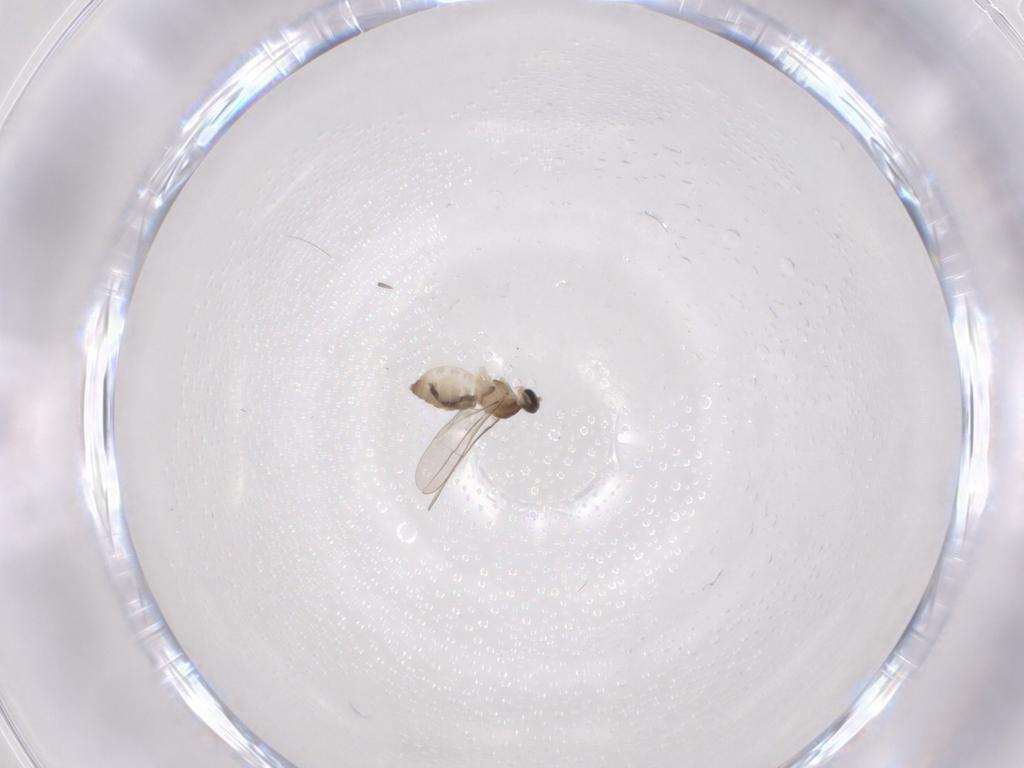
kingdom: Animalia
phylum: Arthropoda
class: Insecta
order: Diptera
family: Cecidomyiidae
